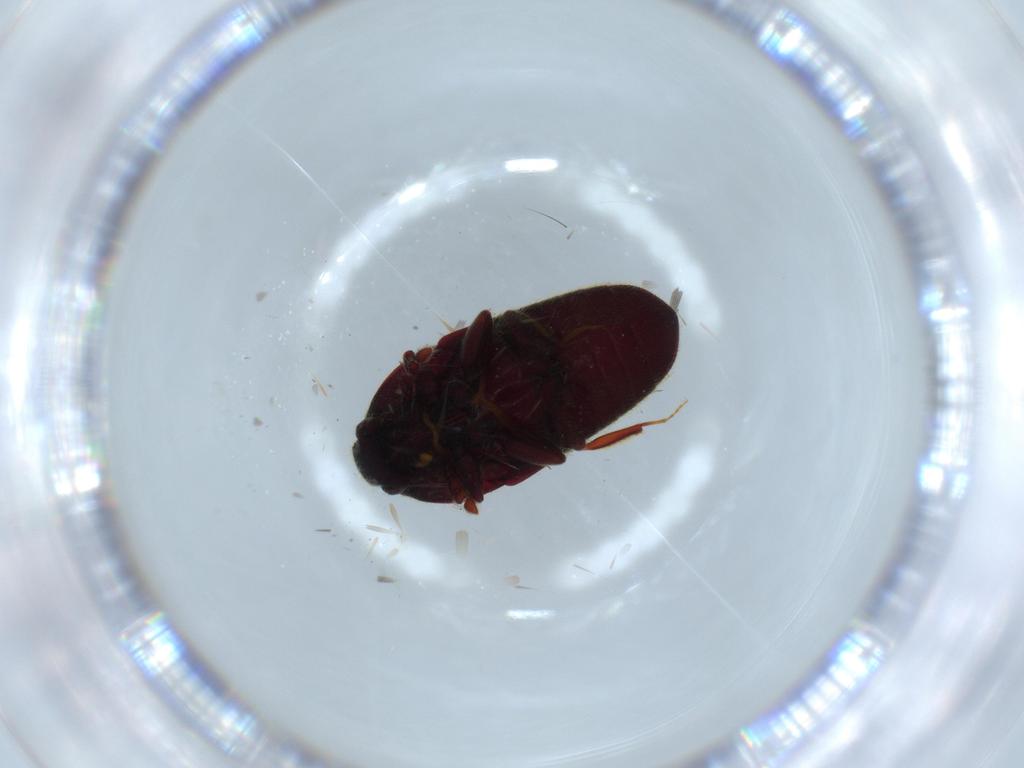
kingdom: Animalia
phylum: Arthropoda
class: Insecta
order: Coleoptera
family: Throscidae
